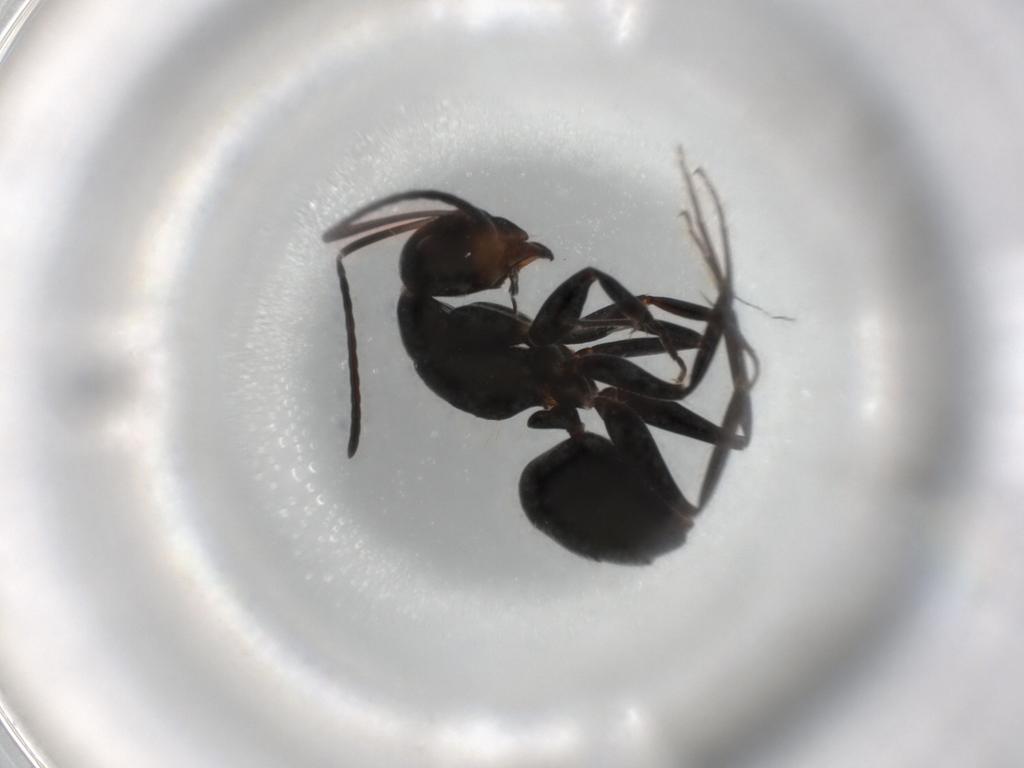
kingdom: Animalia
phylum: Arthropoda
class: Insecta
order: Hymenoptera
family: Formicidae
